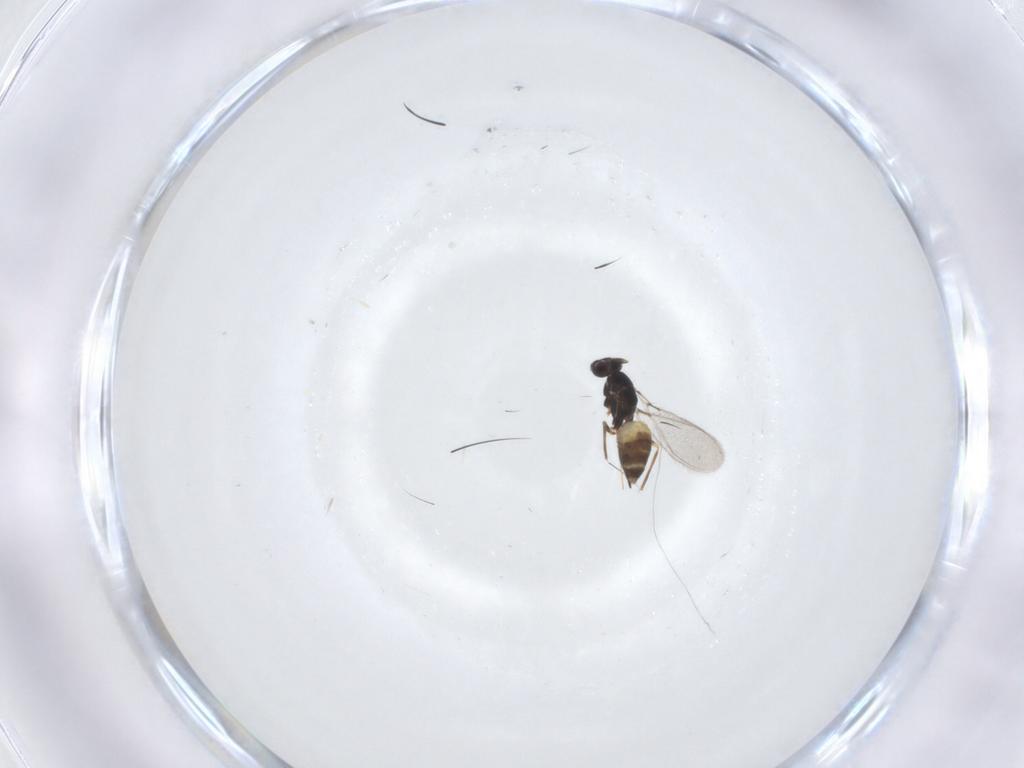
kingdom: Animalia
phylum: Arthropoda
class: Insecta
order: Hymenoptera
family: Mymaridae
